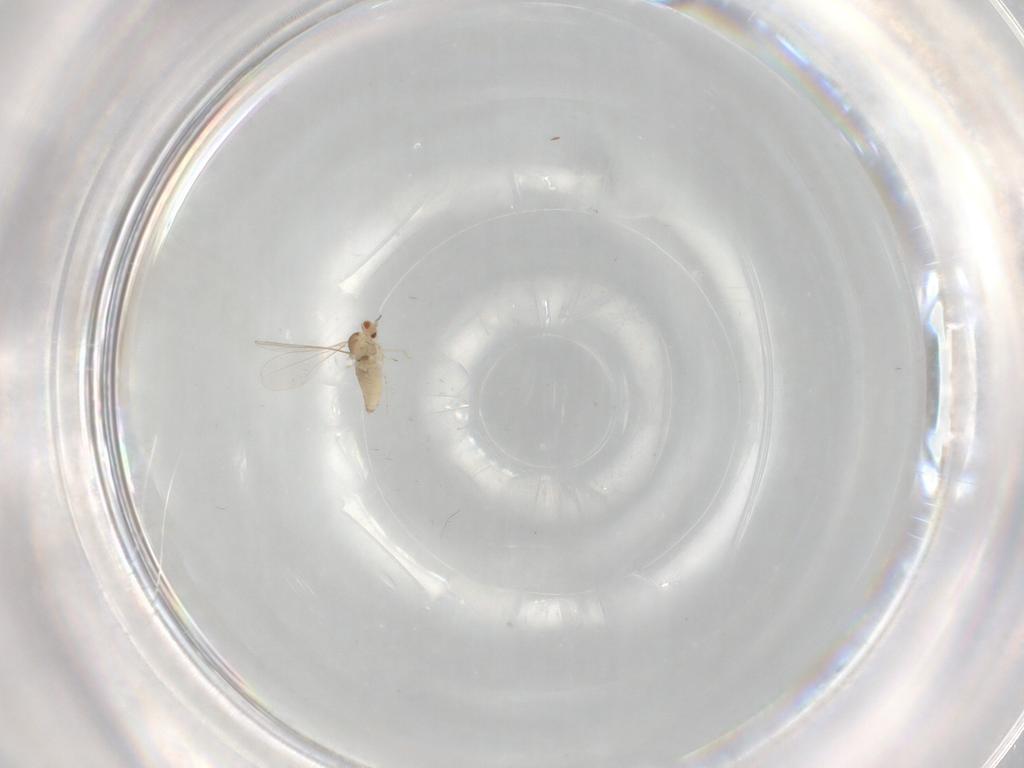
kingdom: Animalia
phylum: Arthropoda
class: Insecta
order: Diptera
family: Cecidomyiidae
